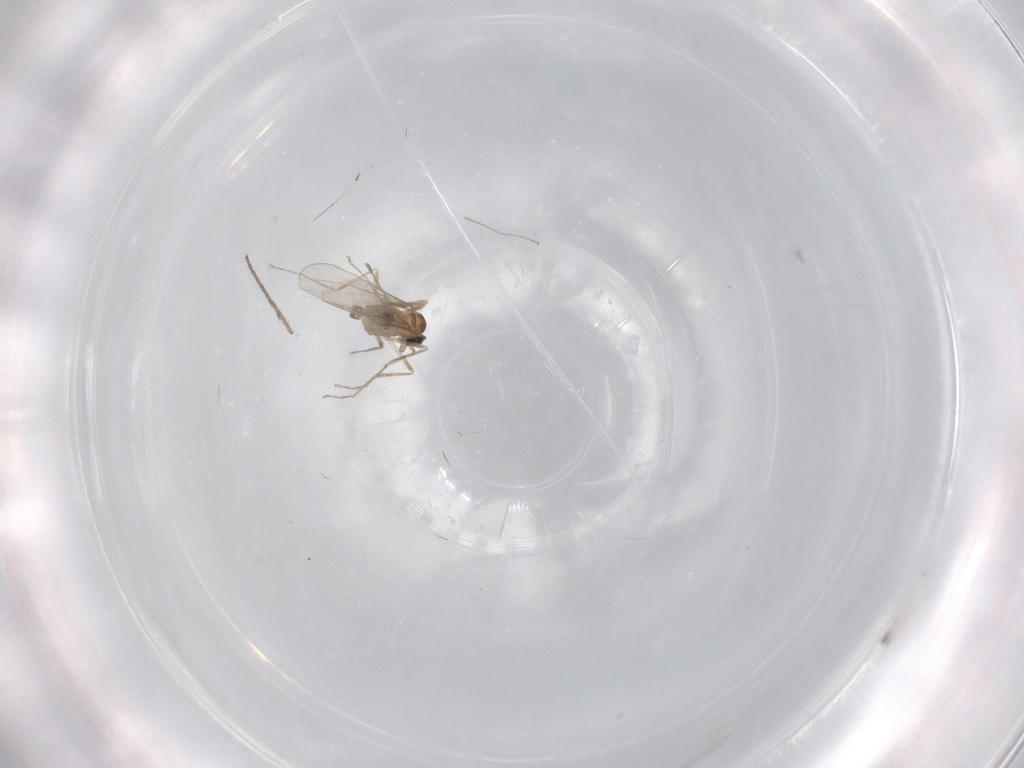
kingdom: Animalia
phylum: Arthropoda
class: Insecta
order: Diptera
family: Cecidomyiidae
